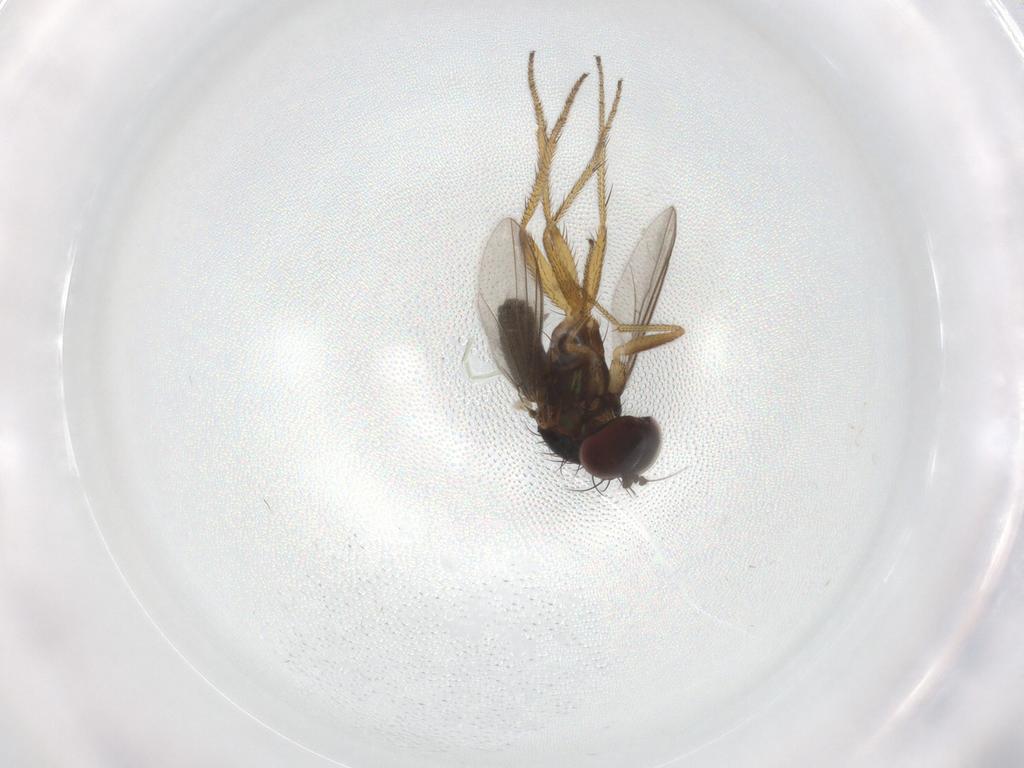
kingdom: Animalia
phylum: Arthropoda
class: Insecta
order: Diptera
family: Dolichopodidae
